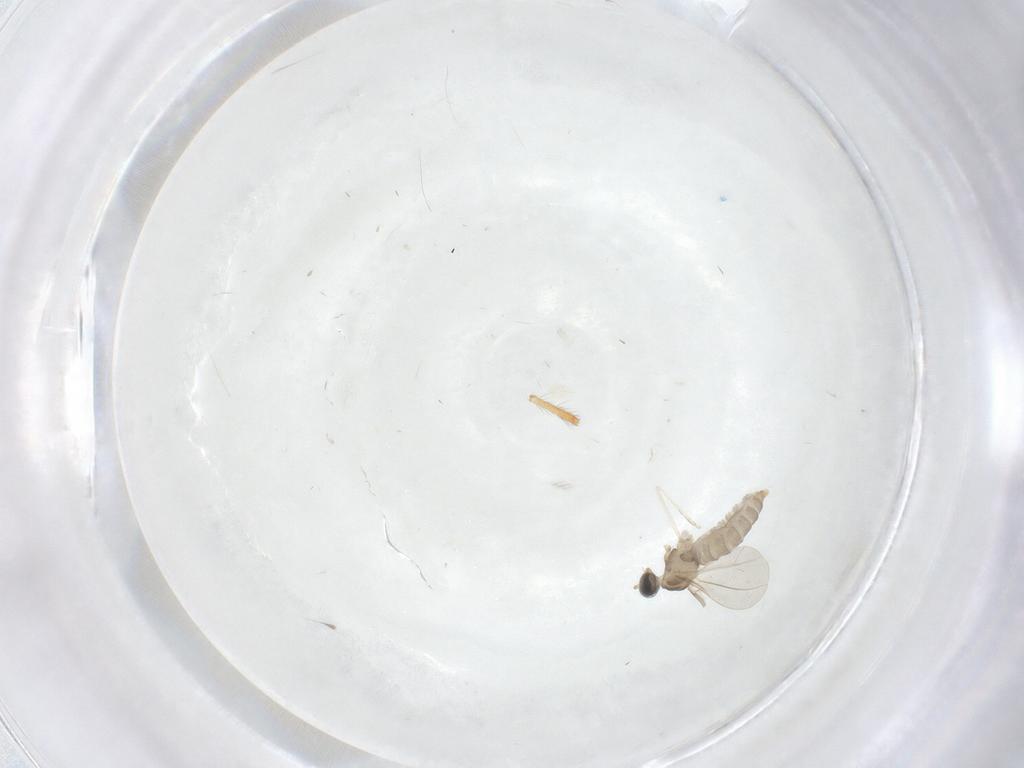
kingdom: Animalia
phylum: Arthropoda
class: Insecta
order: Diptera
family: Cecidomyiidae
